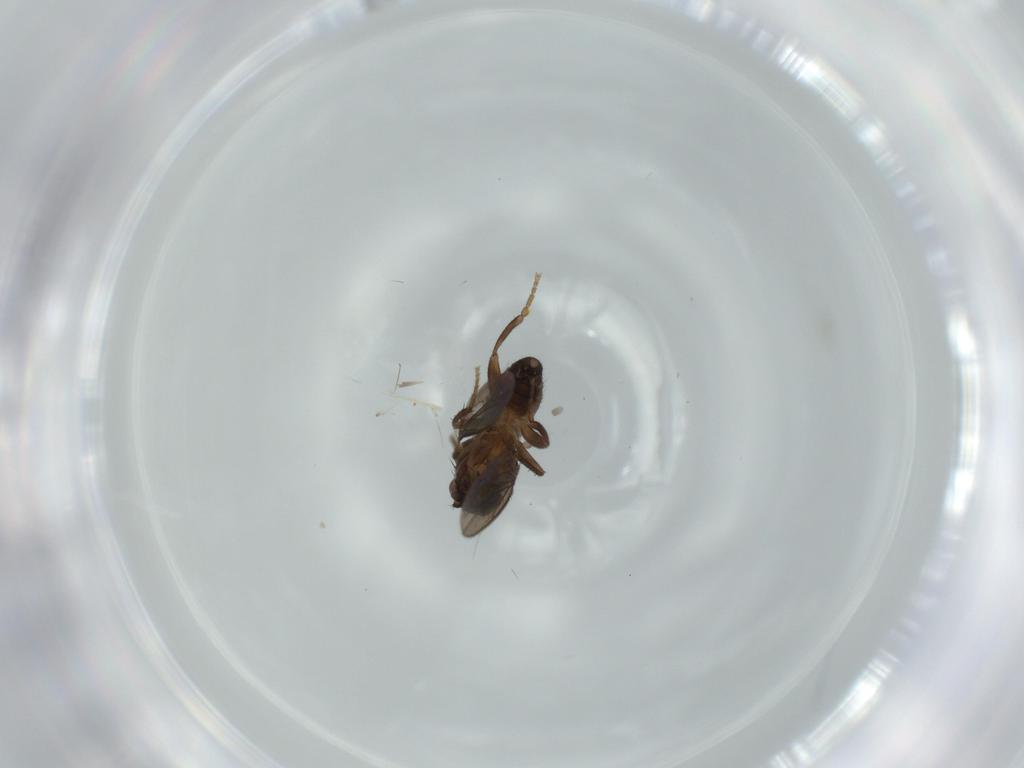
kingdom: Animalia
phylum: Arthropoda
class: Insecta
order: Diptera
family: Sphaeroceridae
